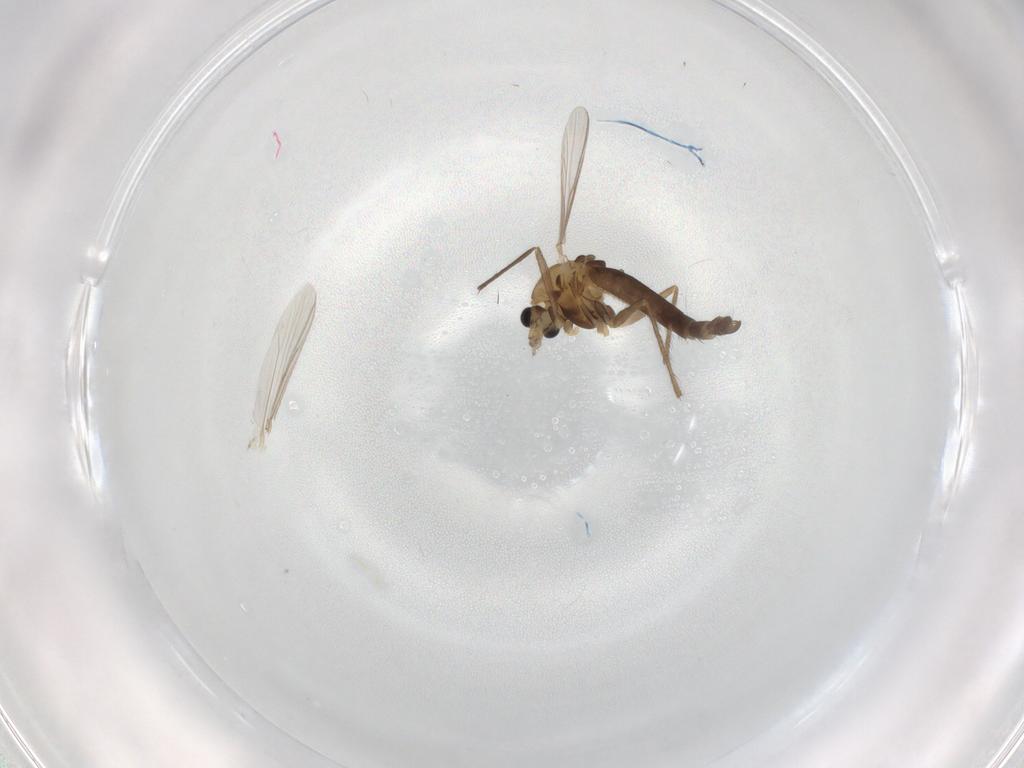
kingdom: Animalia
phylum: Arthropoda
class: Insecta
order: Diptera
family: Chironomidae
